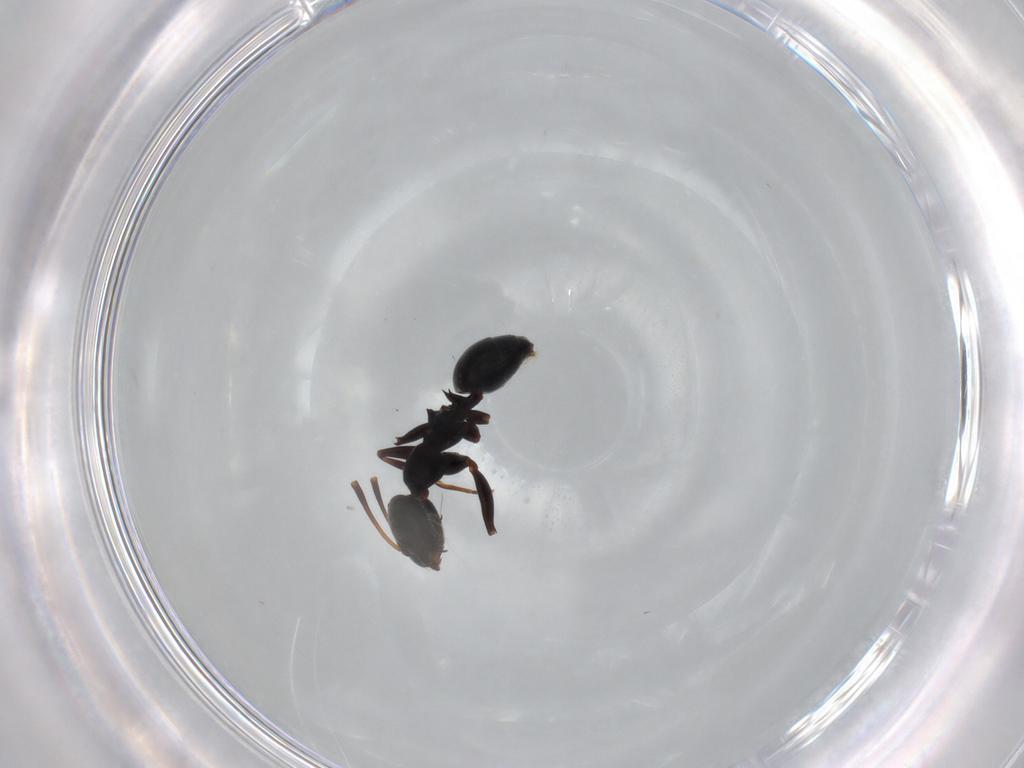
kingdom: Animalia
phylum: Arthropoda
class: Insecta
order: Hymenoptera
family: Formicidae
